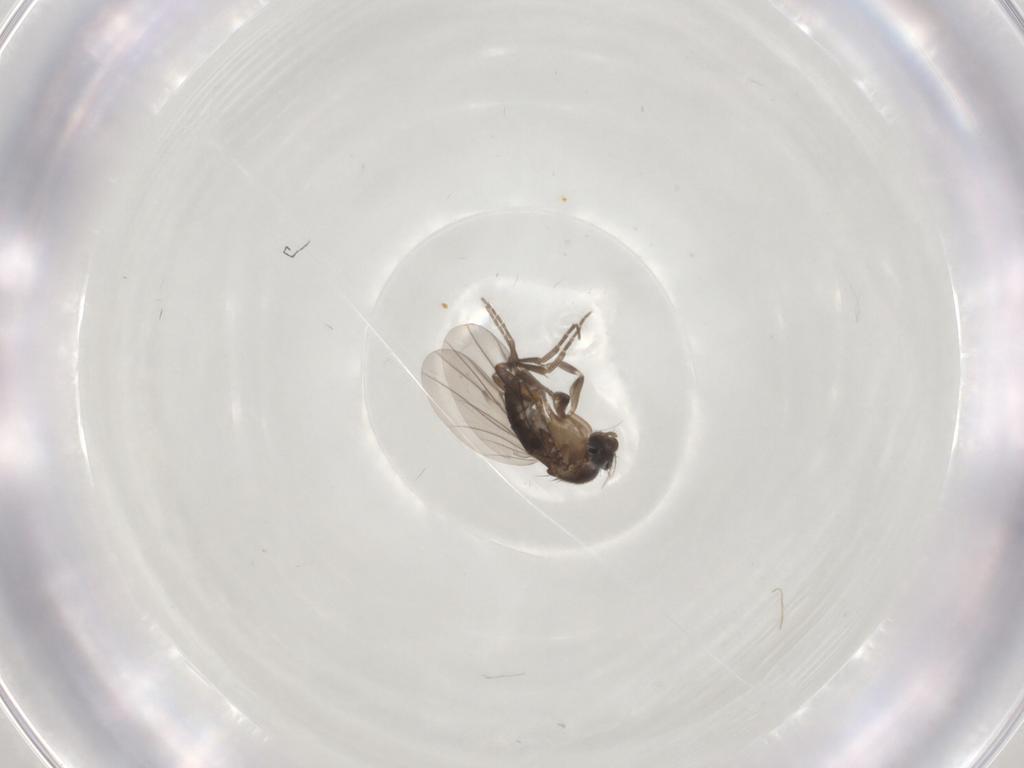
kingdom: Animalia
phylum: Arthropoda
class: Insecta
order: Diptera
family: Phoridae
